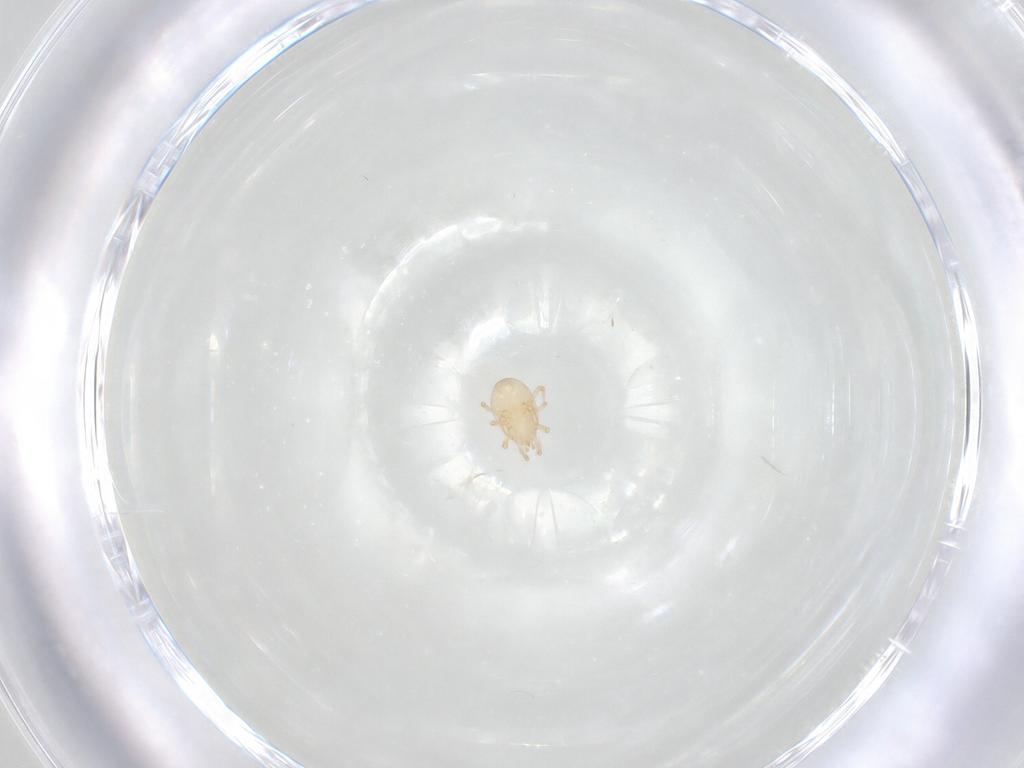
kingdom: Animalia
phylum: Arthropoda
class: Arachnida
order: Mesostigmata
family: Melicharidae
